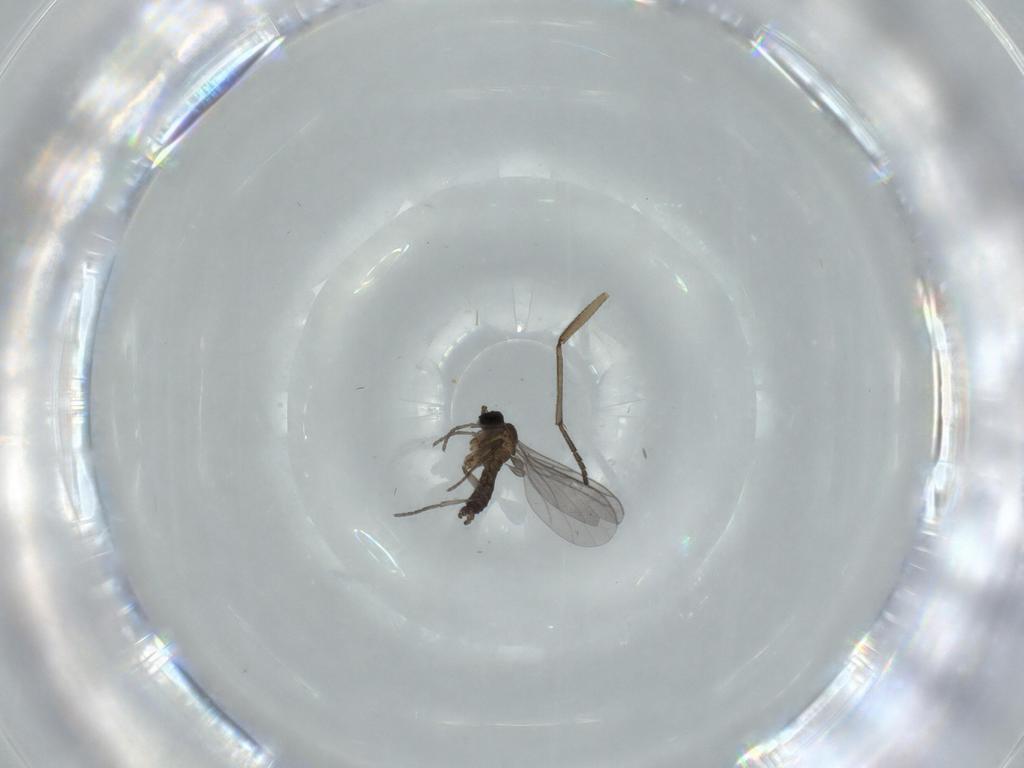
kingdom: Animalia
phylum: Arthropoda
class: Insecta
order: Diptera
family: Sciaridae
